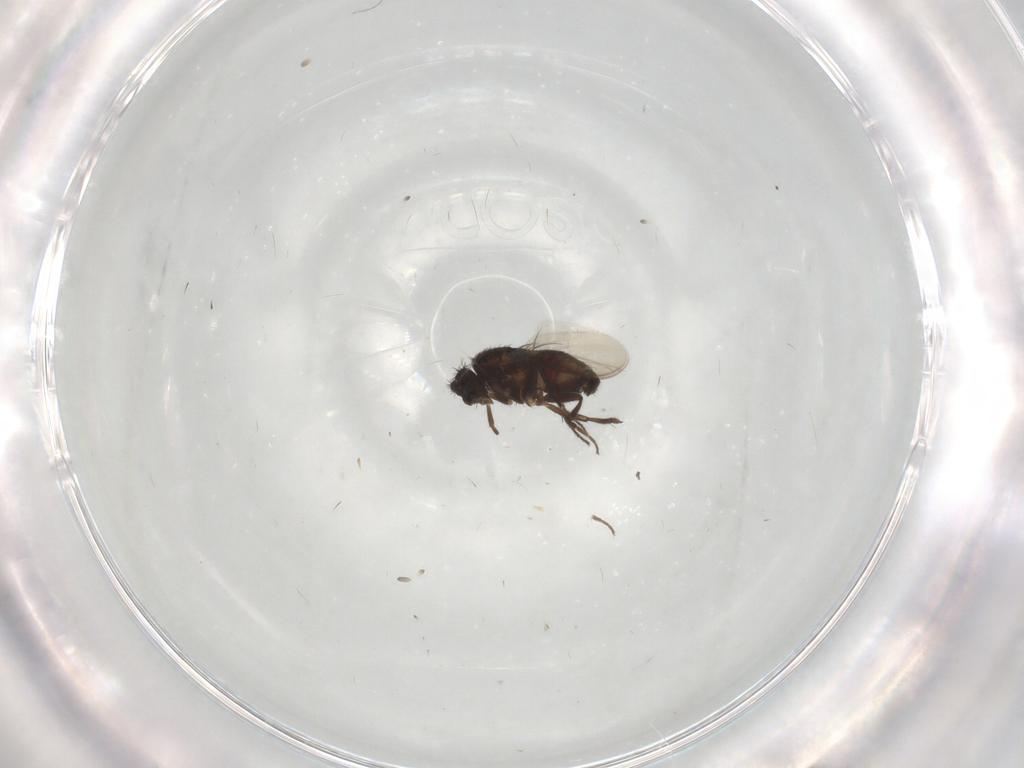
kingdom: Animalia
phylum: Arthropoda
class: Insecta
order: Diptera
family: Sphaeroceridae
